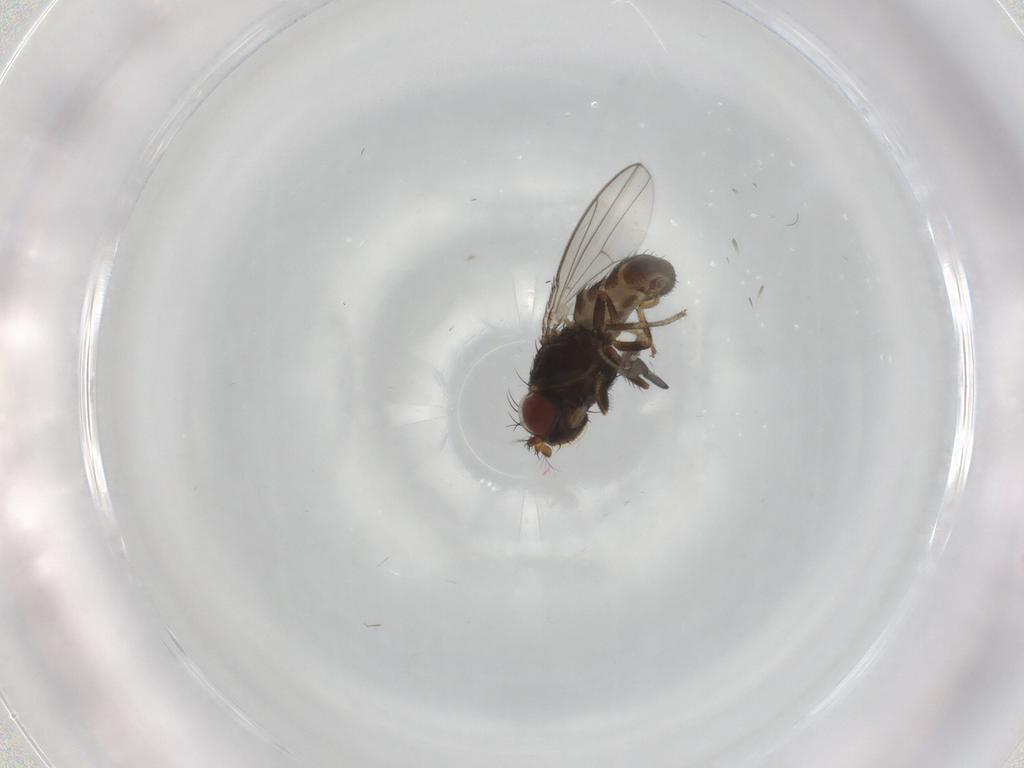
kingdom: Animalia
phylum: Arthropoda
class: Insecta
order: Diptera
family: Ephydridae
